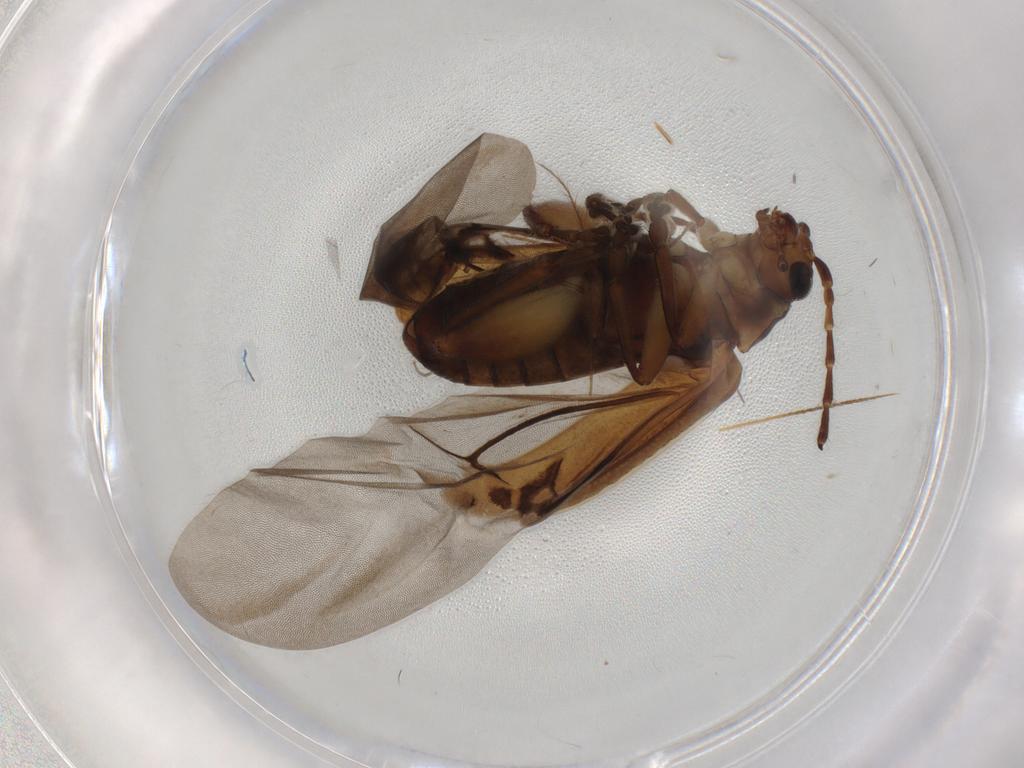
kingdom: Animalia
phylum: Arthropoda
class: Insecta
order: Coleoptera
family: Chrysomelidae
